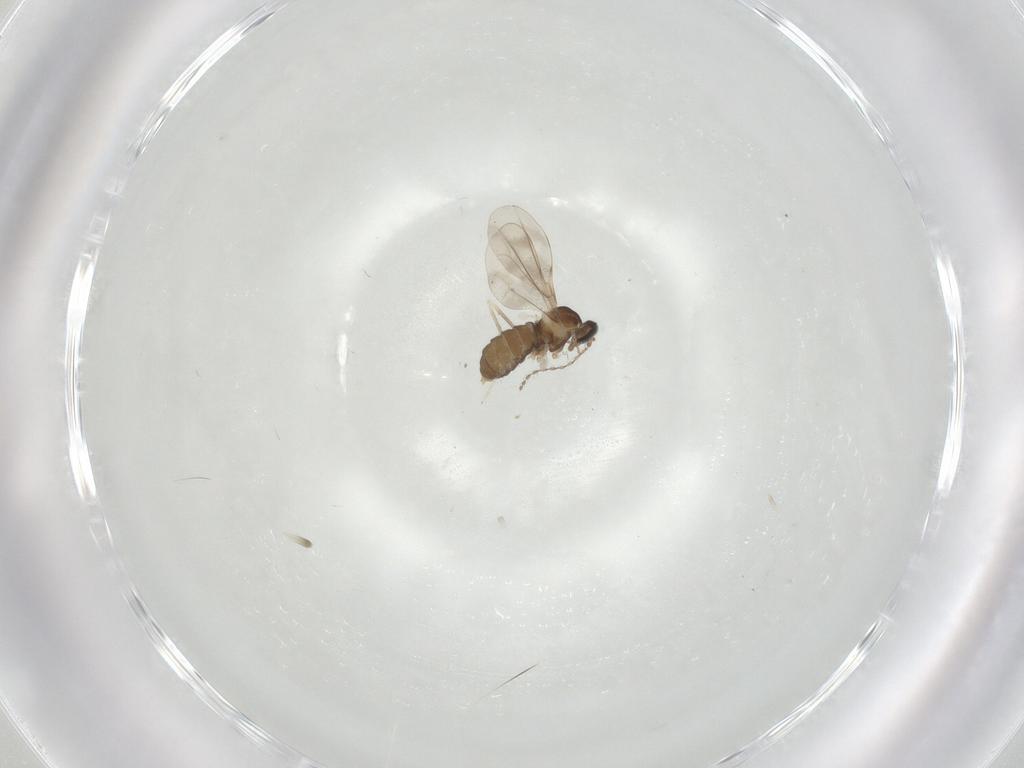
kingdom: Animalia
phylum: Arthropoda
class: Insecta
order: Diptera
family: Cecidomyiidae
